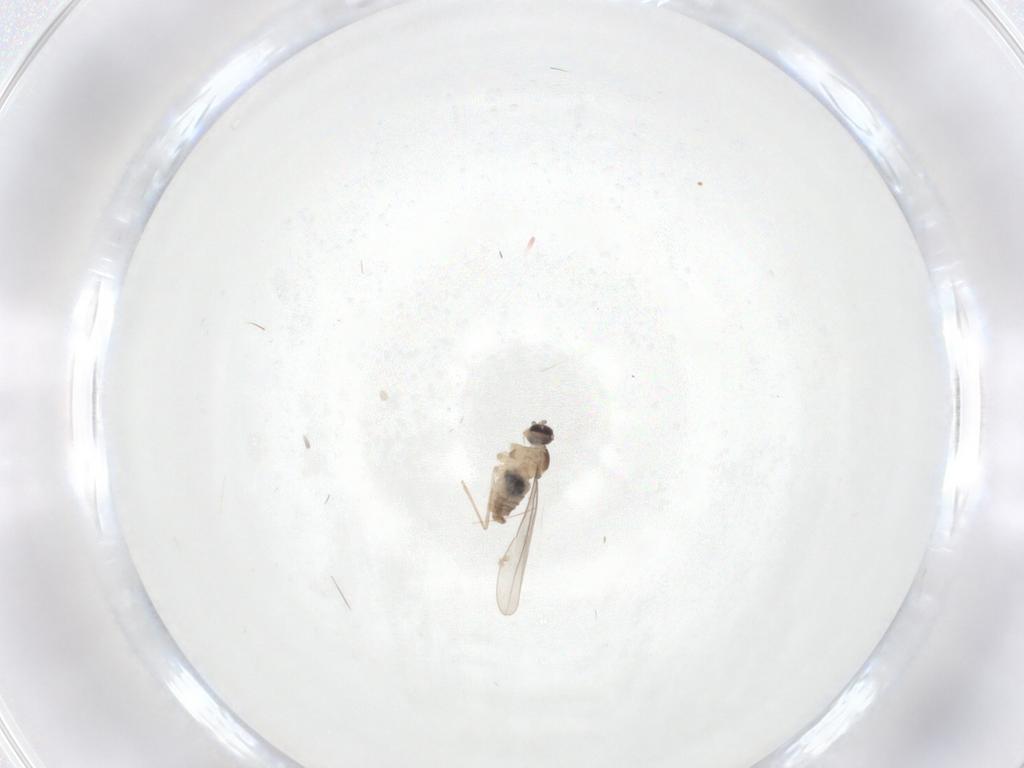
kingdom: Animalia
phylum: Arthropoda
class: Insecta
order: Diptera
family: Cecidomyiidae
